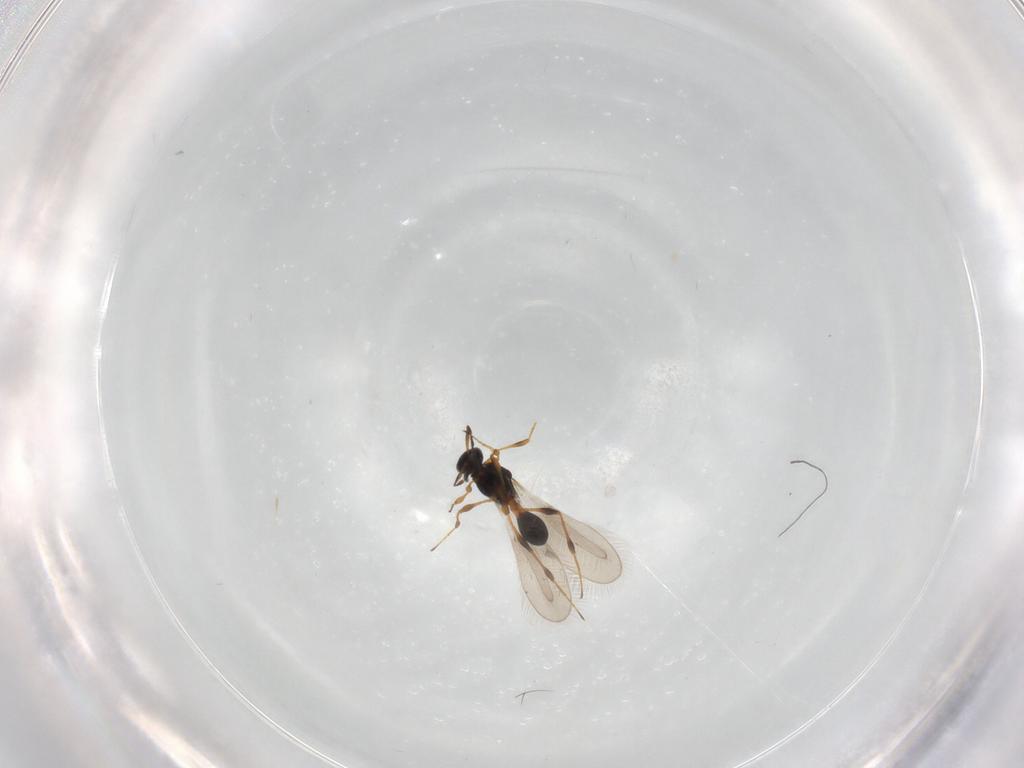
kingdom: Animalia
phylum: Arthropoda
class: Insecta
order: Hymenoptera
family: Platygastridae
